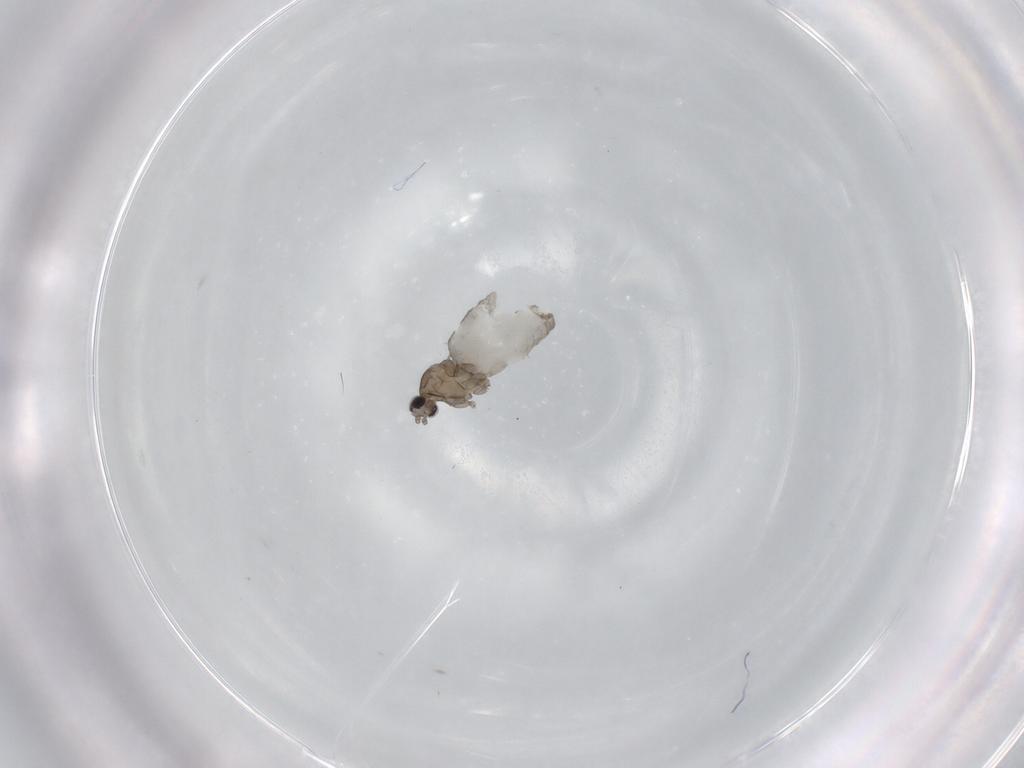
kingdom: Animalia
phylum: Arthropoda
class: Insecta
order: Diptera
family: Cecidomyiidae
